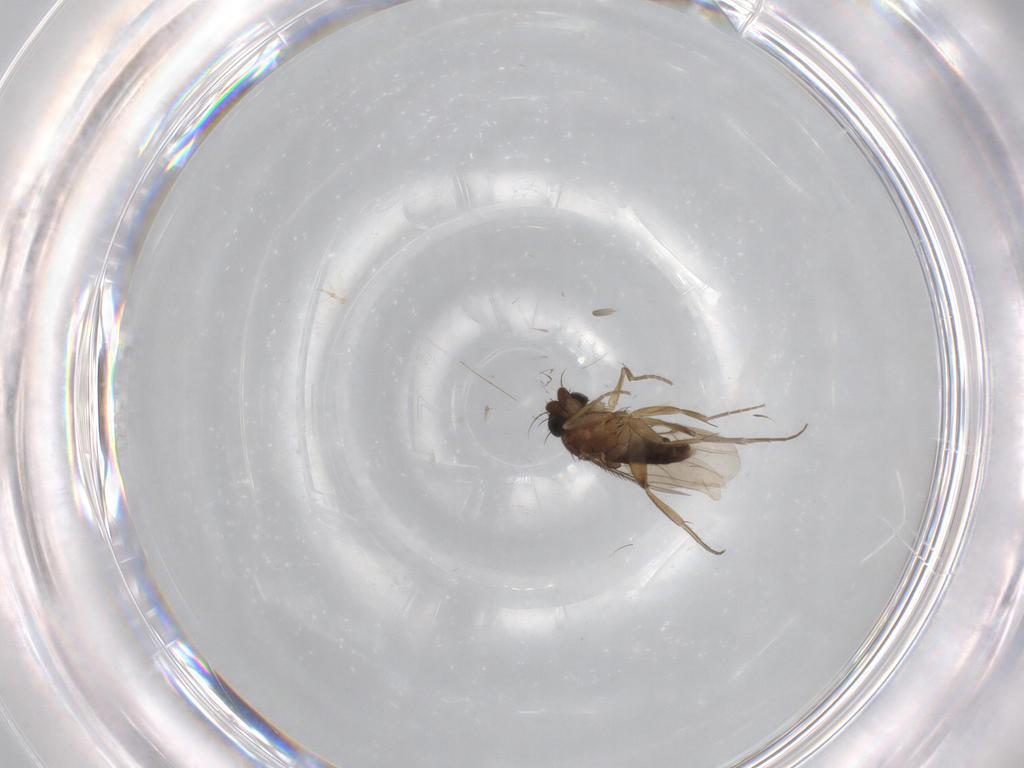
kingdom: Animalia
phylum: Arthropoda
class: Insecta
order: Diptera
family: Phoridae
